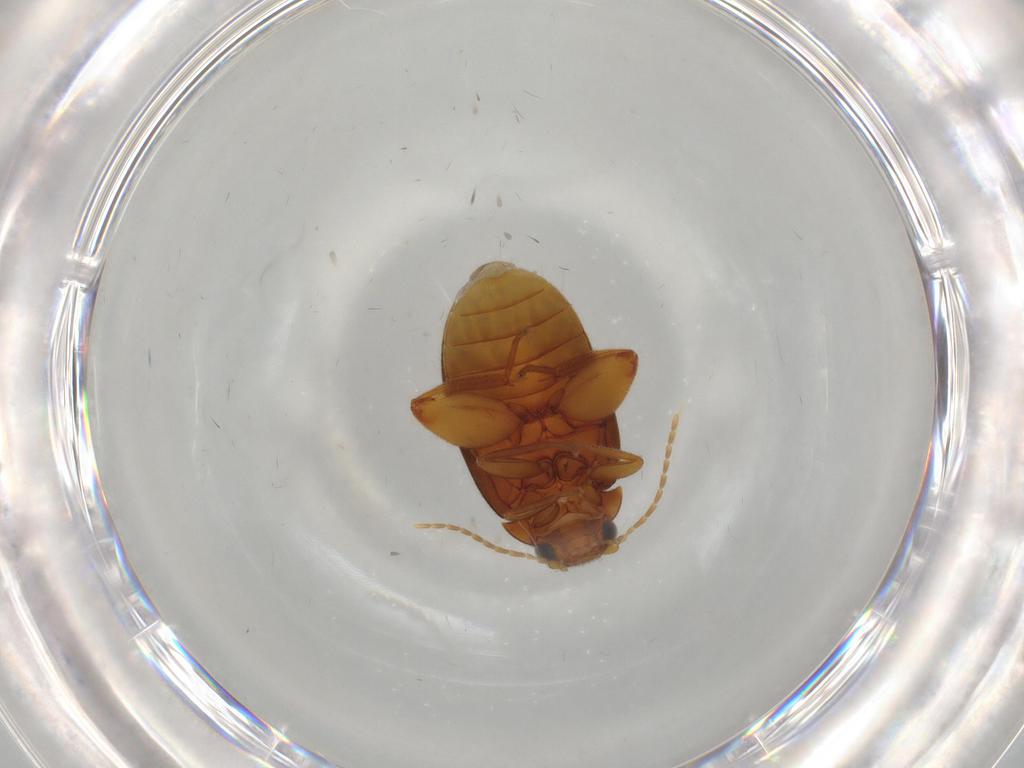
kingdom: Animalia
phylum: Arthropoda
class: Insecta
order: Coleoptera
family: Scirtidae
